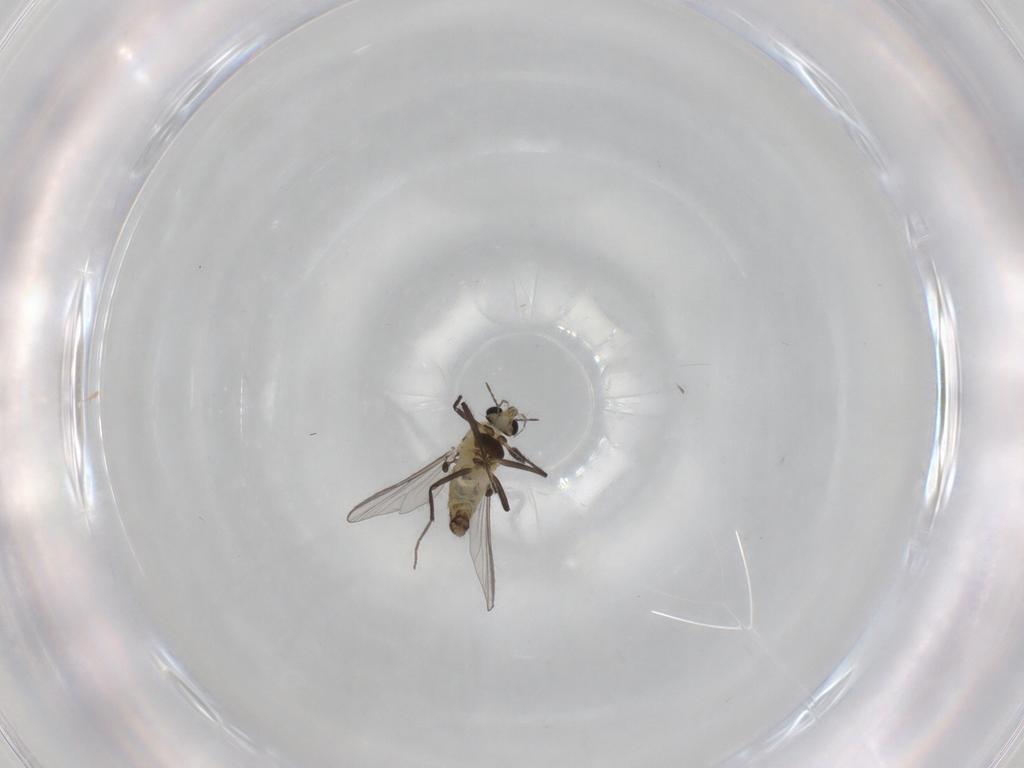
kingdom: Animalia
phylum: Arthropoda
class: Insecta
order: Diptera
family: Chironomidae
